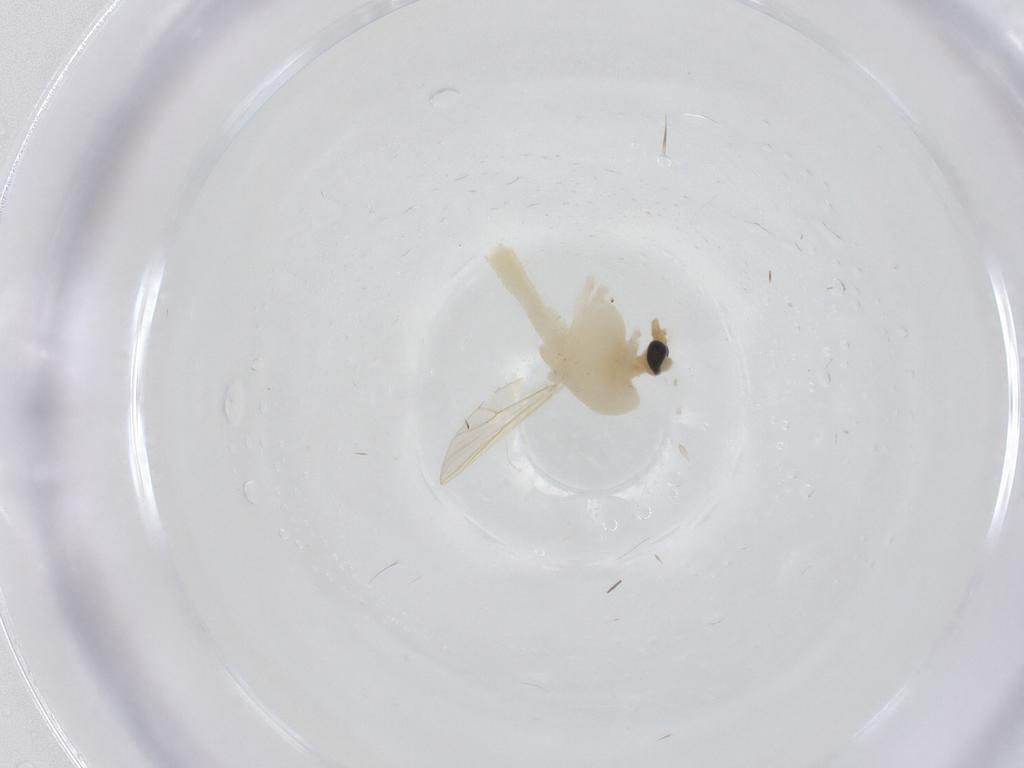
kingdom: Animalia
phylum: Arthropoda
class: Insecta
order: Diptera
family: Chironomidae
